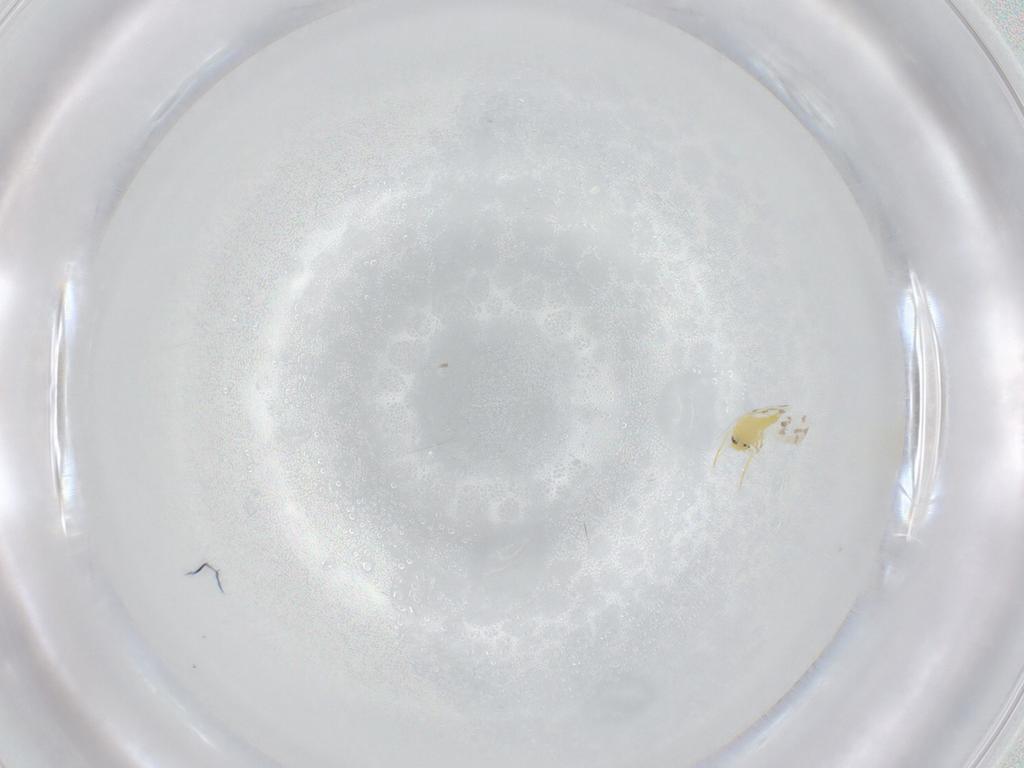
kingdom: Animalia
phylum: Arthropoda
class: Insecta
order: Hemiptera
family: Aleyrodidae
